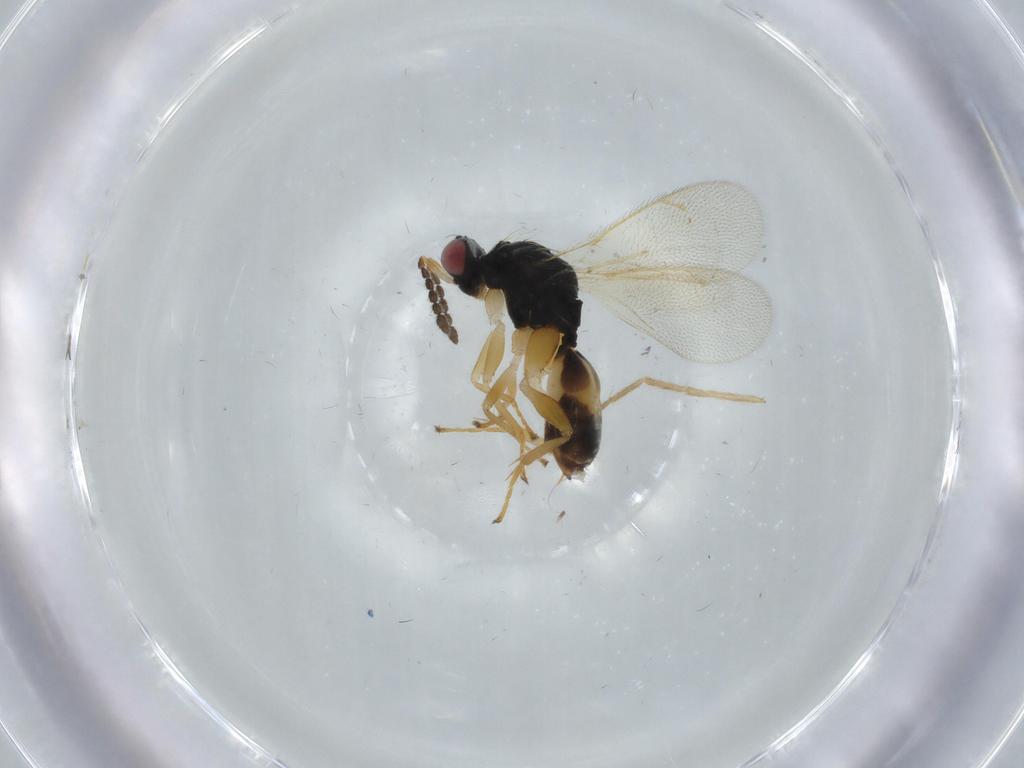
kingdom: Animalia
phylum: Arthropoda
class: Insecta
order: Hymenoptera
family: Eulophidae
